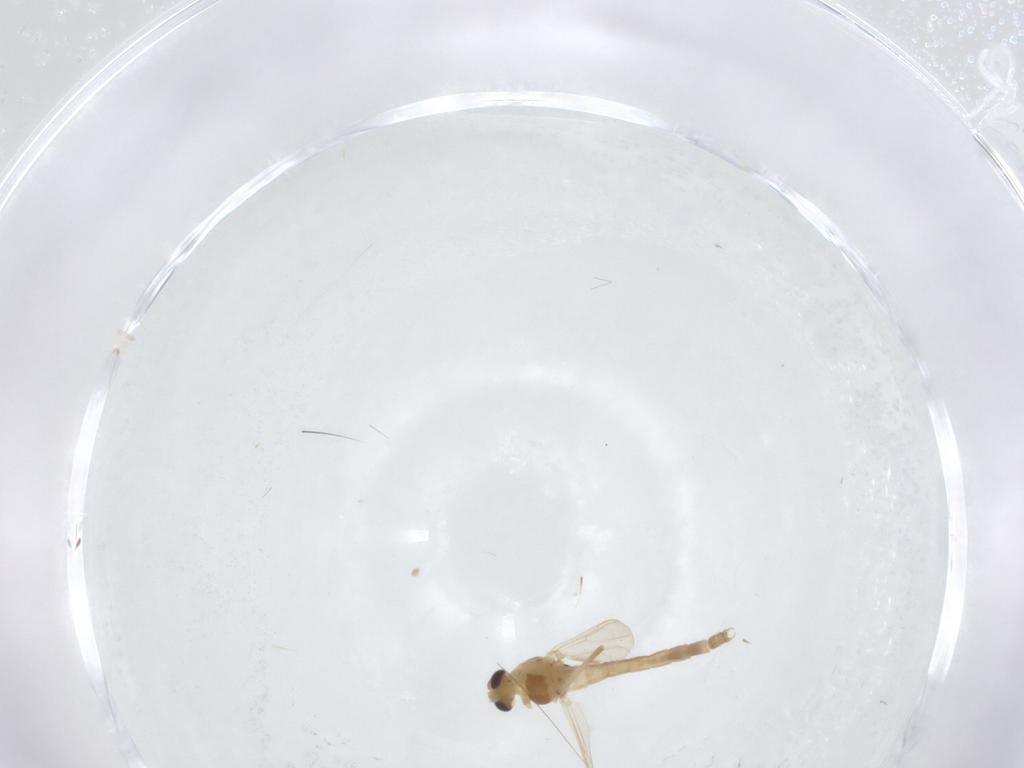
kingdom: Animalia
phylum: Arthropoda
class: Insecta
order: Diptera
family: Chironomidae
